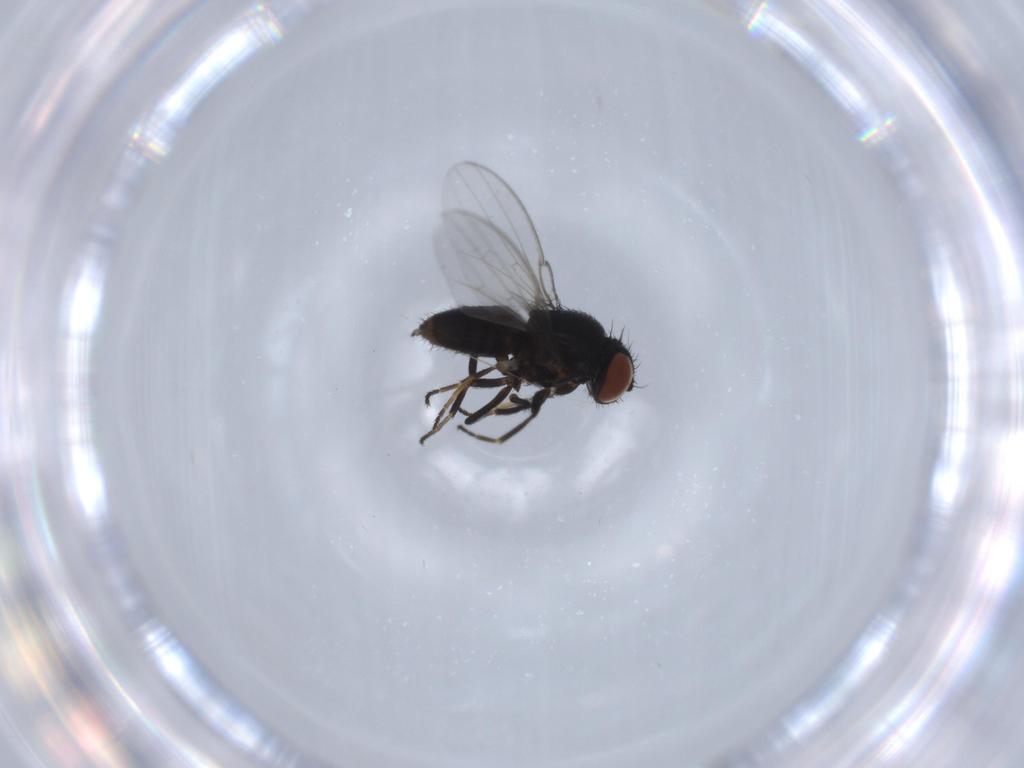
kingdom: Animalia
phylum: Arthropoda
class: Insecta
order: Diptera
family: Milichiidae
